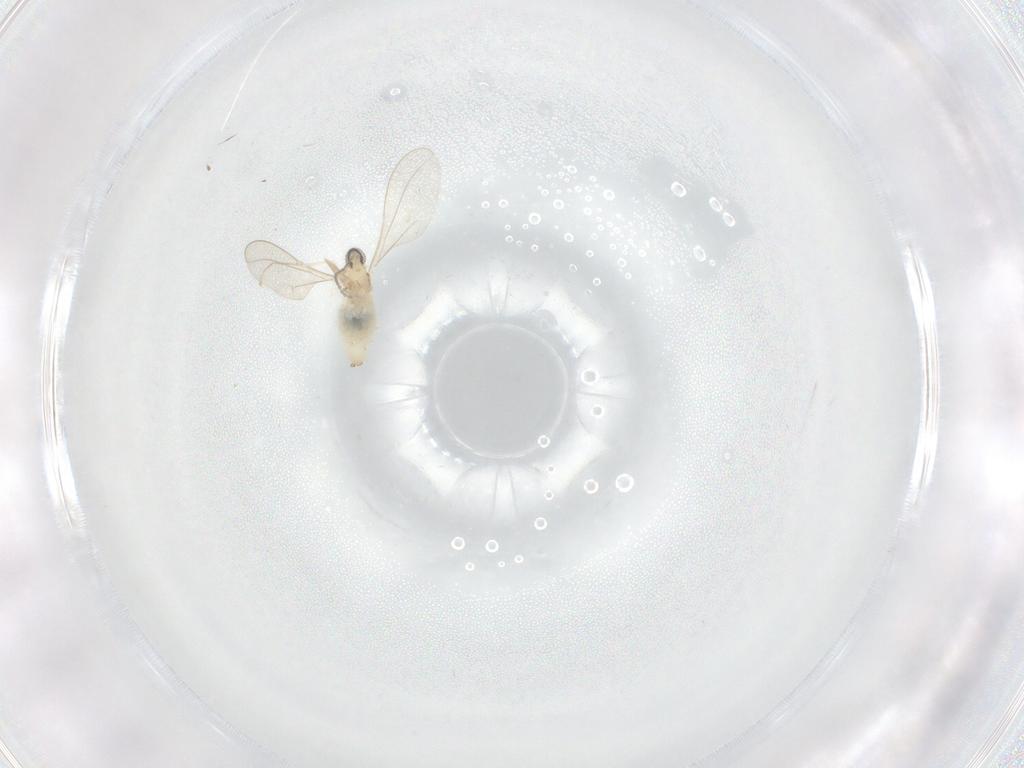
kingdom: Animalia
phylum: Arthropoda
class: Insecta
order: Diptera
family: Cecidomyiidae
